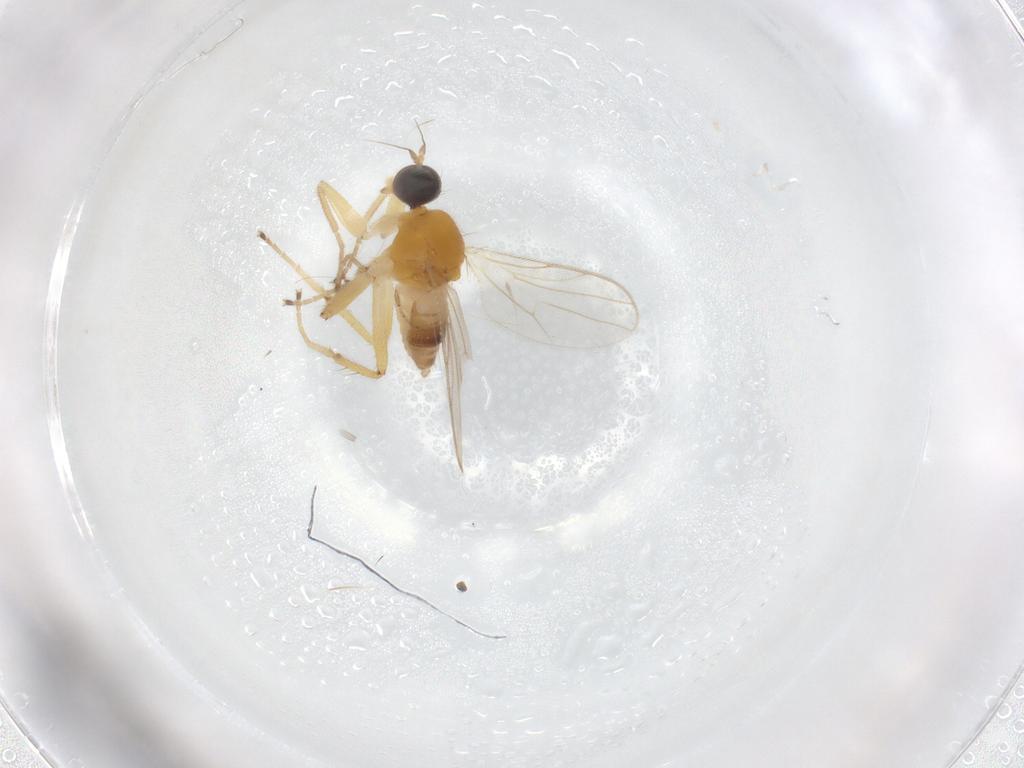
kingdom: Animalia
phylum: Arthropoda
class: Insecta
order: Diptera
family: Hybotidae
